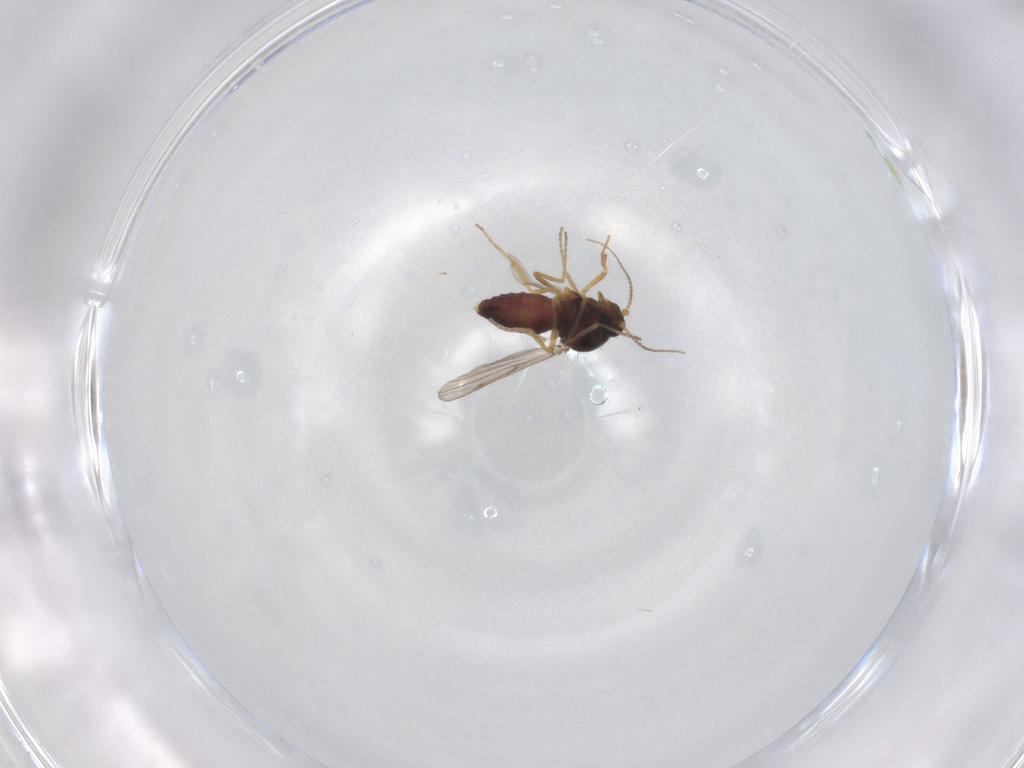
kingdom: Animalia
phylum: Arthropoda
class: Insecta
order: Diptera
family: Ceratopogonidae
